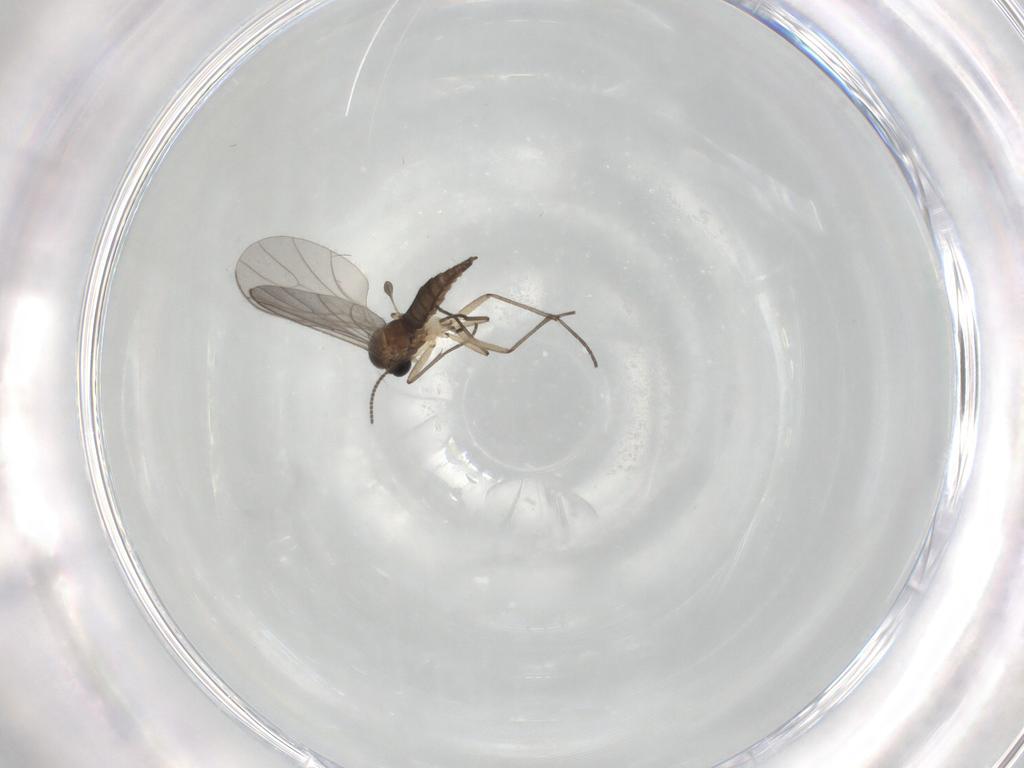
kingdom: Animalia
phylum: Arthropoda
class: Insecta
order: Diptera
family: Sciaridae
